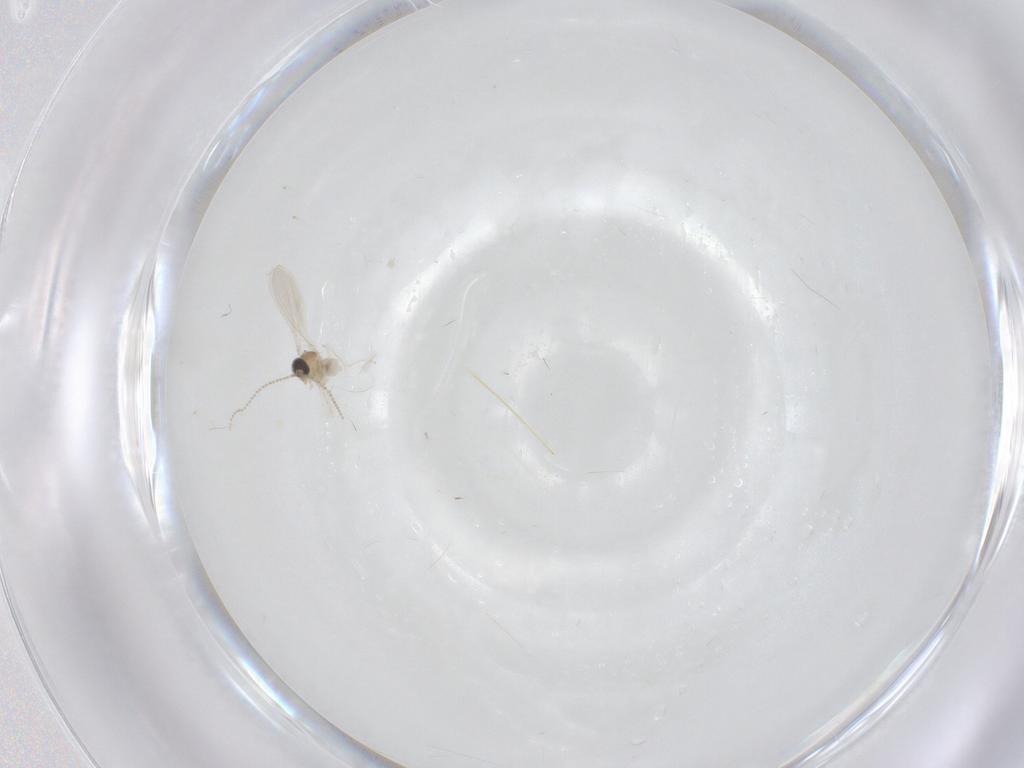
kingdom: Animalia
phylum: Arthropoda
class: Insecta
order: Diptera
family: Cecidomyiidae
